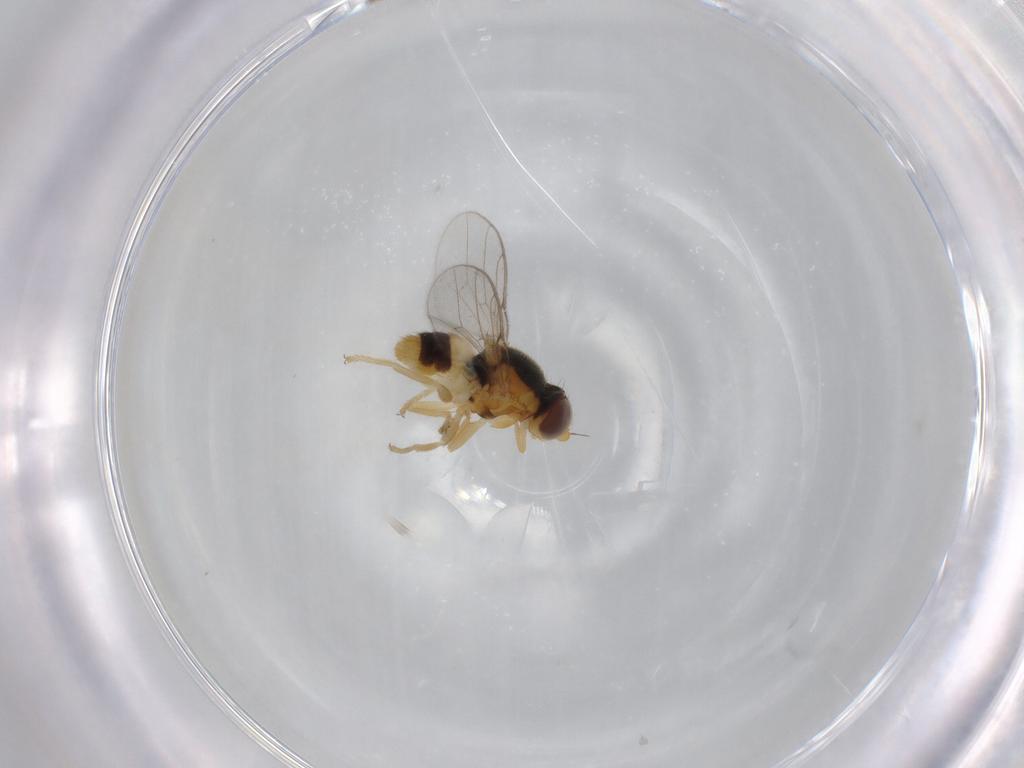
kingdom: Animalia
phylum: Arthropoda
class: Insecta
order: Diptera
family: Chloropidae
